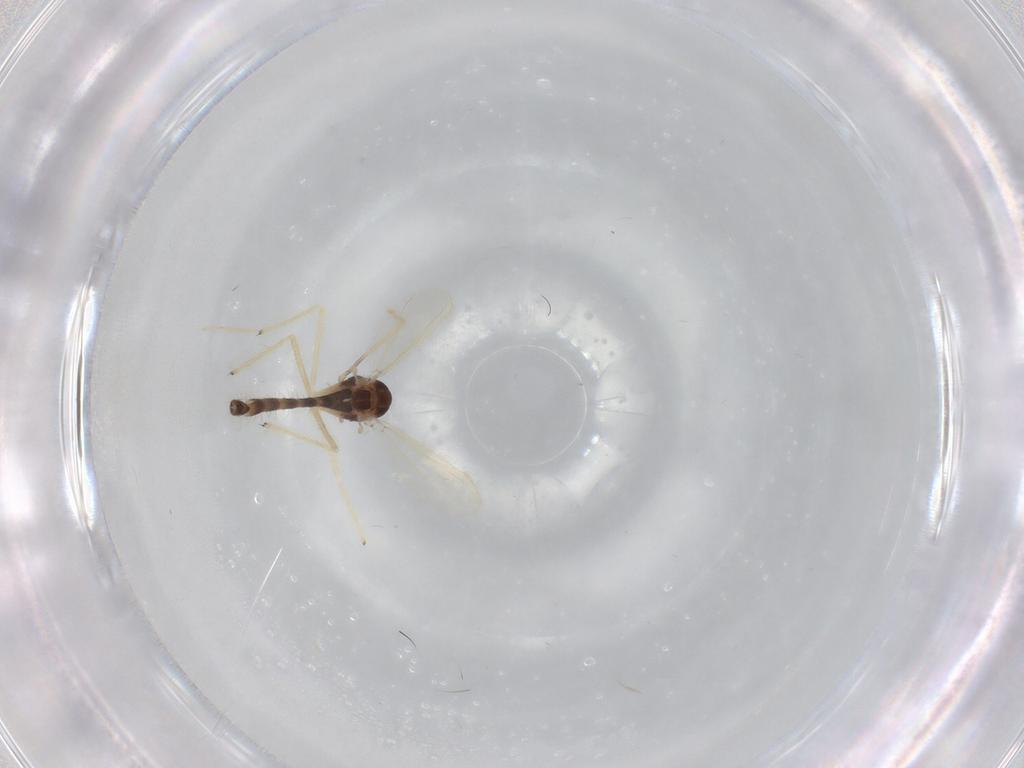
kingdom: Animalia
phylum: Arthropoda
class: Insecta
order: Diptera
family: Chironomidae
